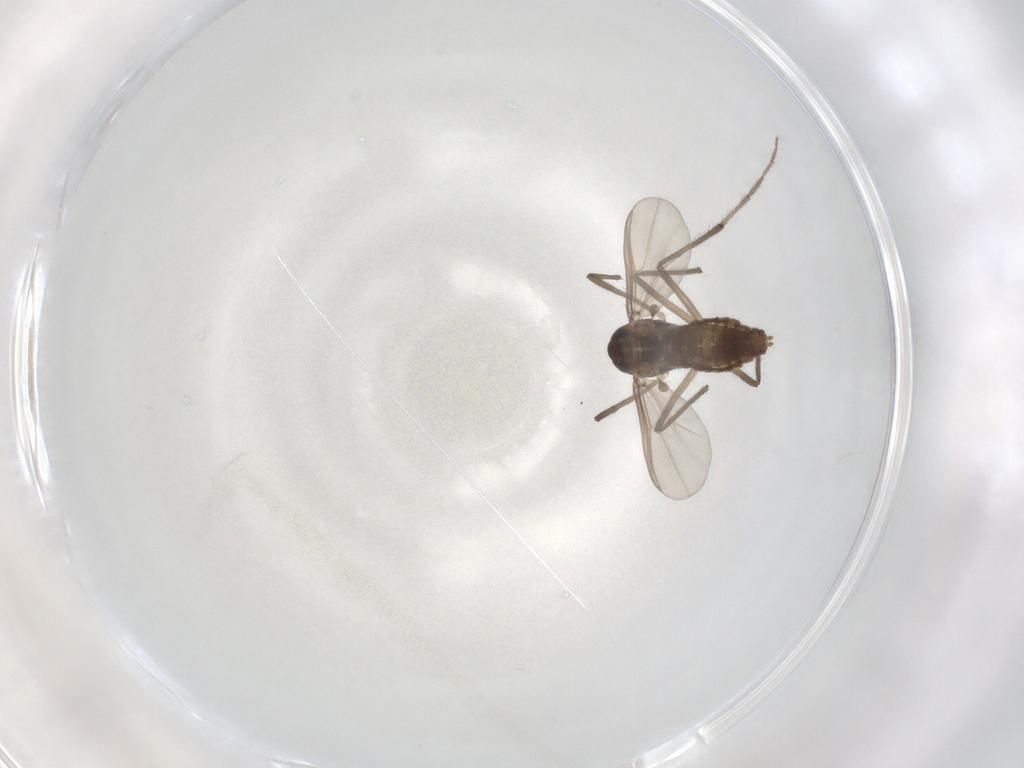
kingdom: Animalia
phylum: Arthropoda
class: Insecta
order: Diptera
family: Chironomidae
